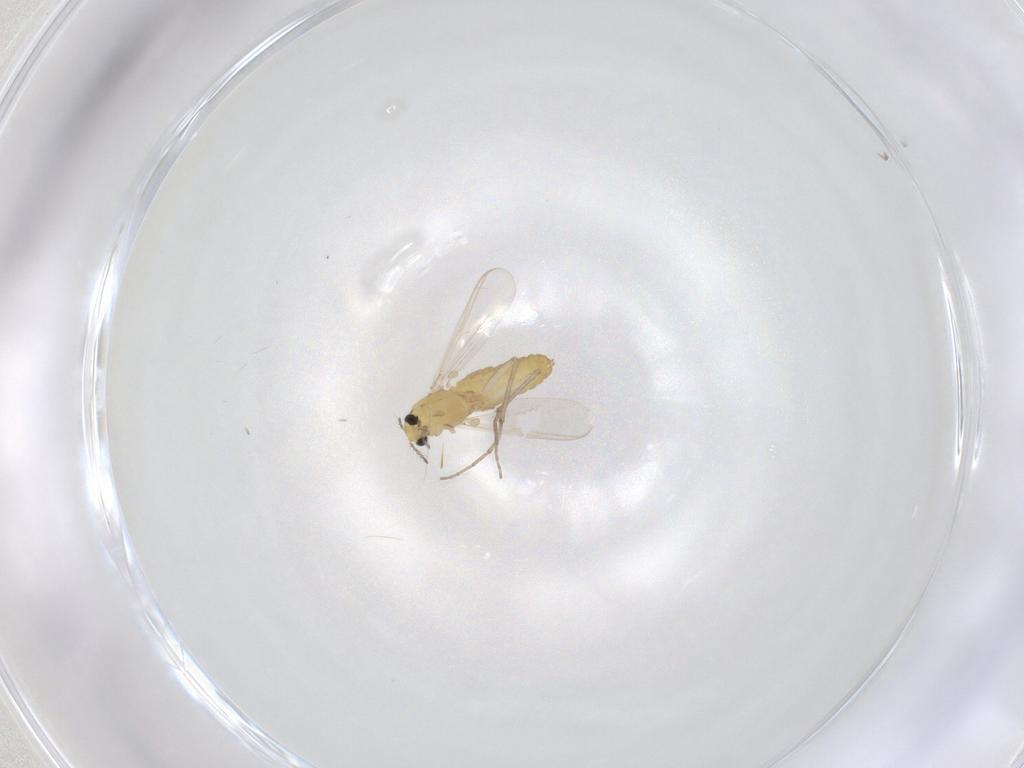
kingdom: Animalia
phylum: Arthropoda
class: Insecta
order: Diptera
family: Chironomidae
